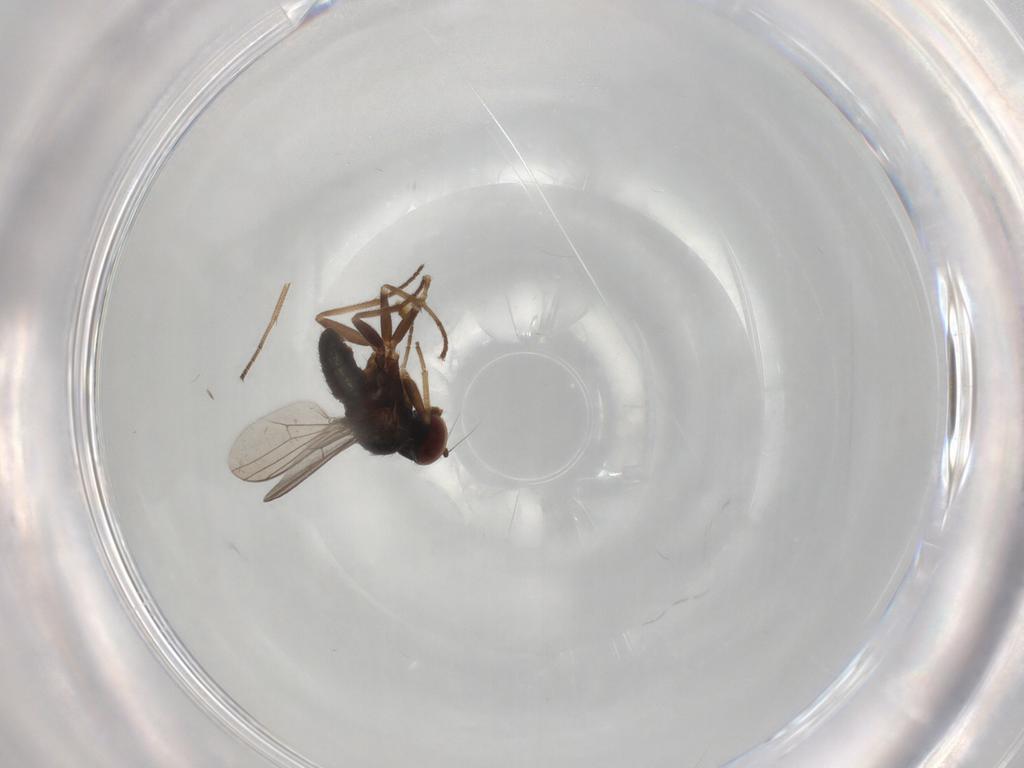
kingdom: Animalia
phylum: Arthropoda
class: Insecta
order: Diptera
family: Dolichopodidae
